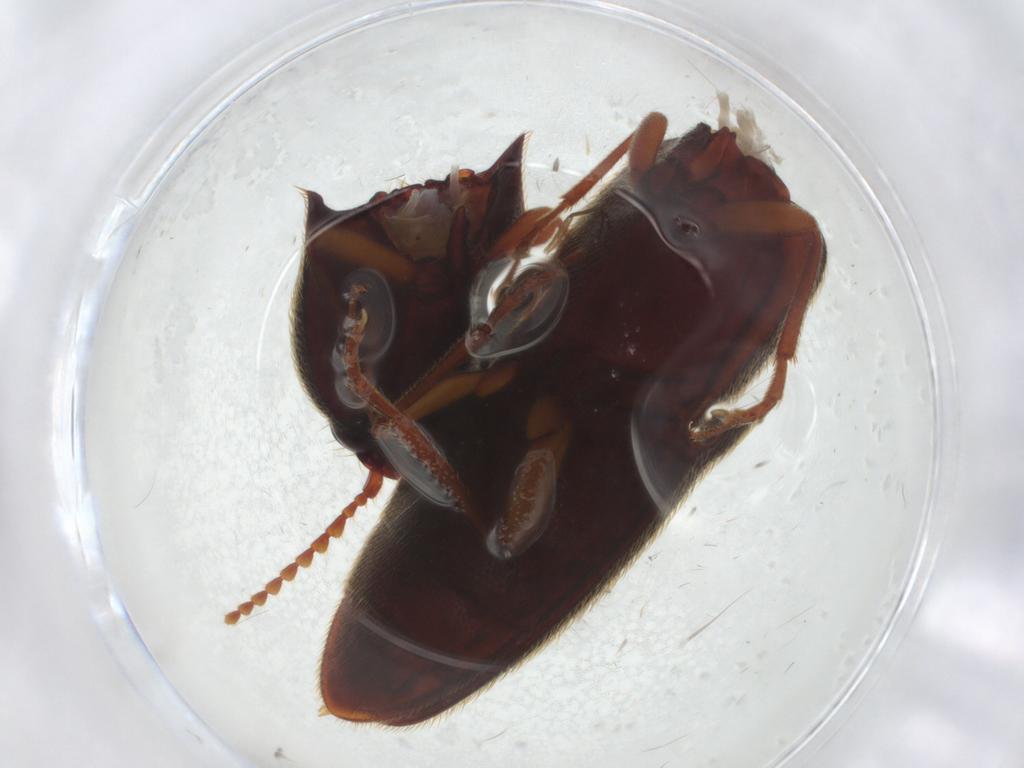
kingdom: Animalia
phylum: Arthropoda
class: Insecta
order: Coleoptera
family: Elateridae
